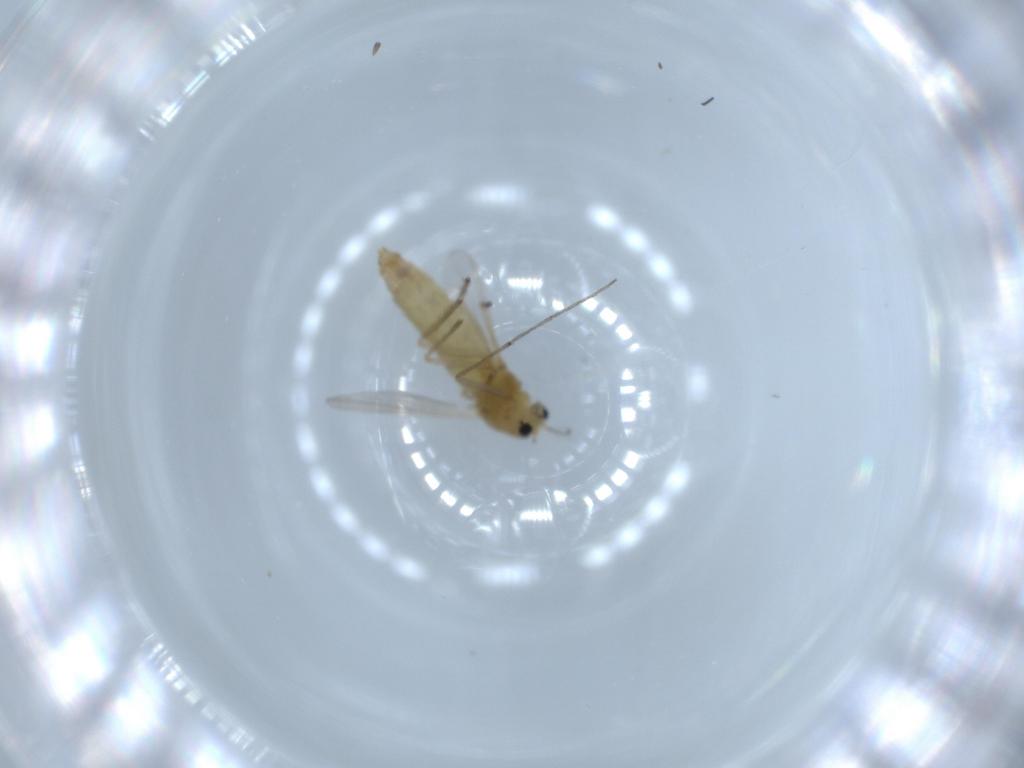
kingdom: Animalia
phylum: Arthropoda
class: Insecta
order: Diptera
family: Chironomidae
